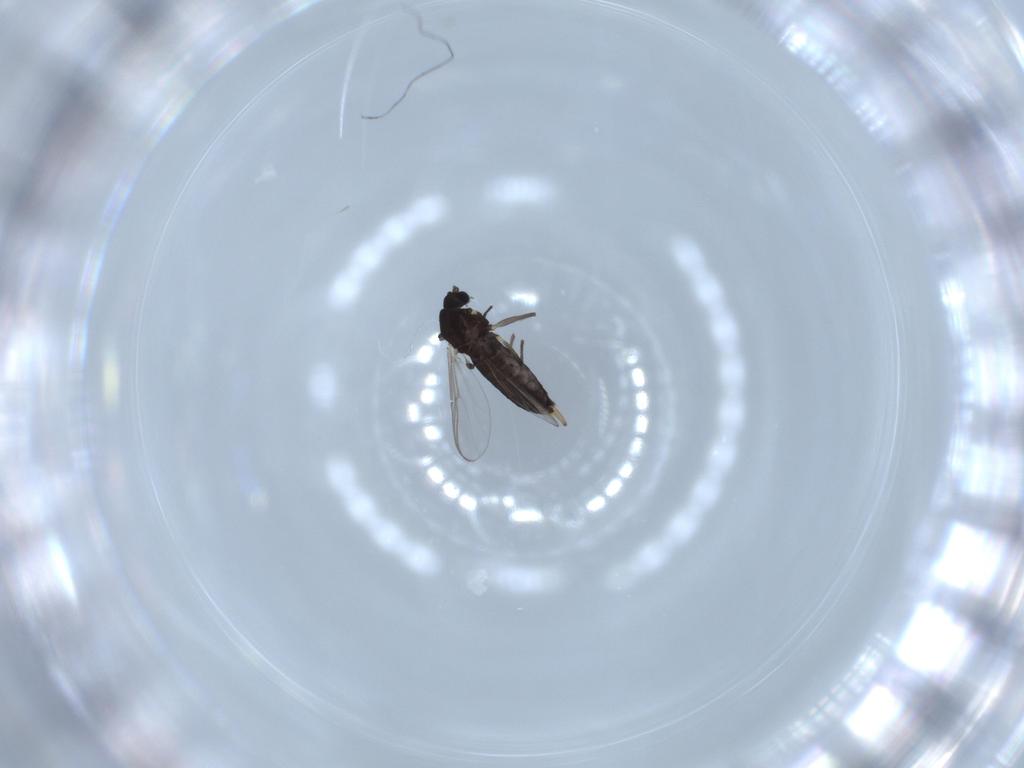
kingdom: Animalia
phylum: Arthropoda
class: Insecta
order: Diptera
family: Chironomidae
